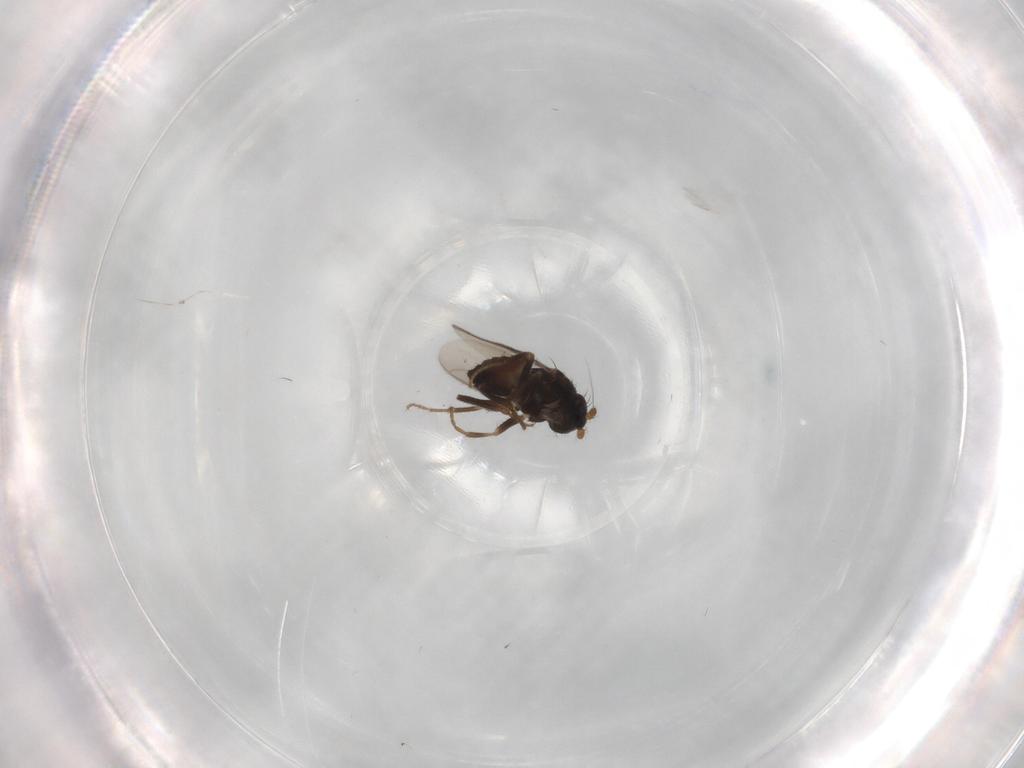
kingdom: Animalia
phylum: Arthropoda
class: Insecta
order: Diptera
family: Sphaeroceridae
